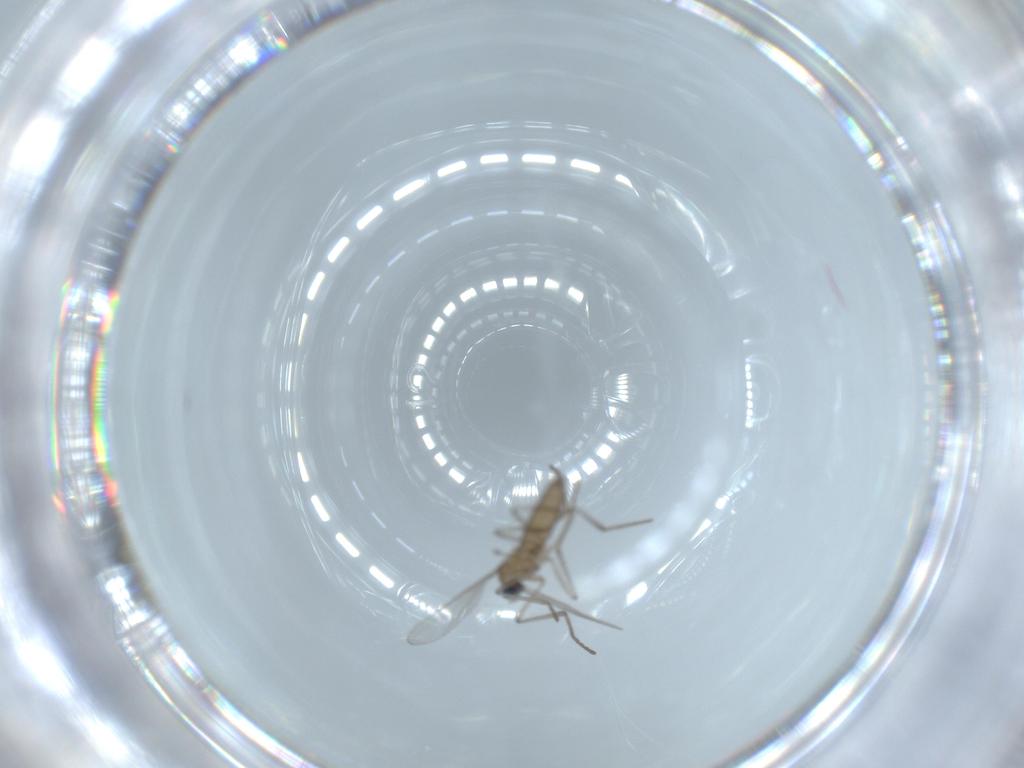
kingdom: Animalia
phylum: Arthropoda
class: Insecta
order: Diptera
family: Cecidomyiidae
